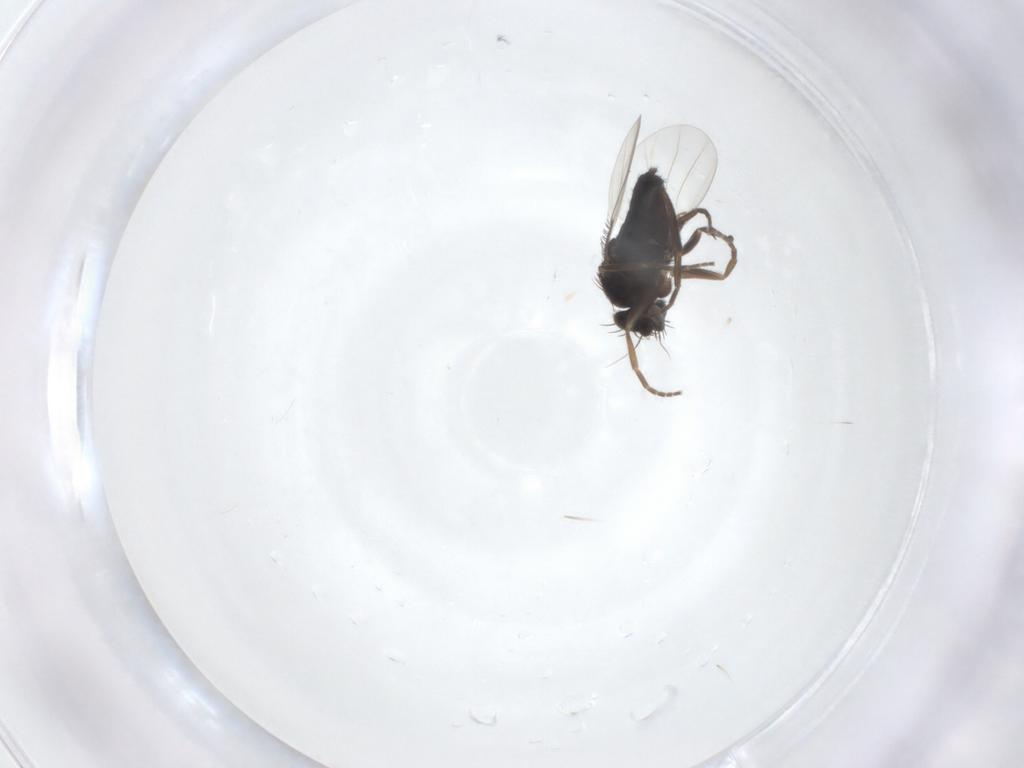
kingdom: Animalia
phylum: Arthropoda
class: Insecta
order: Diptera
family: Phoridae
